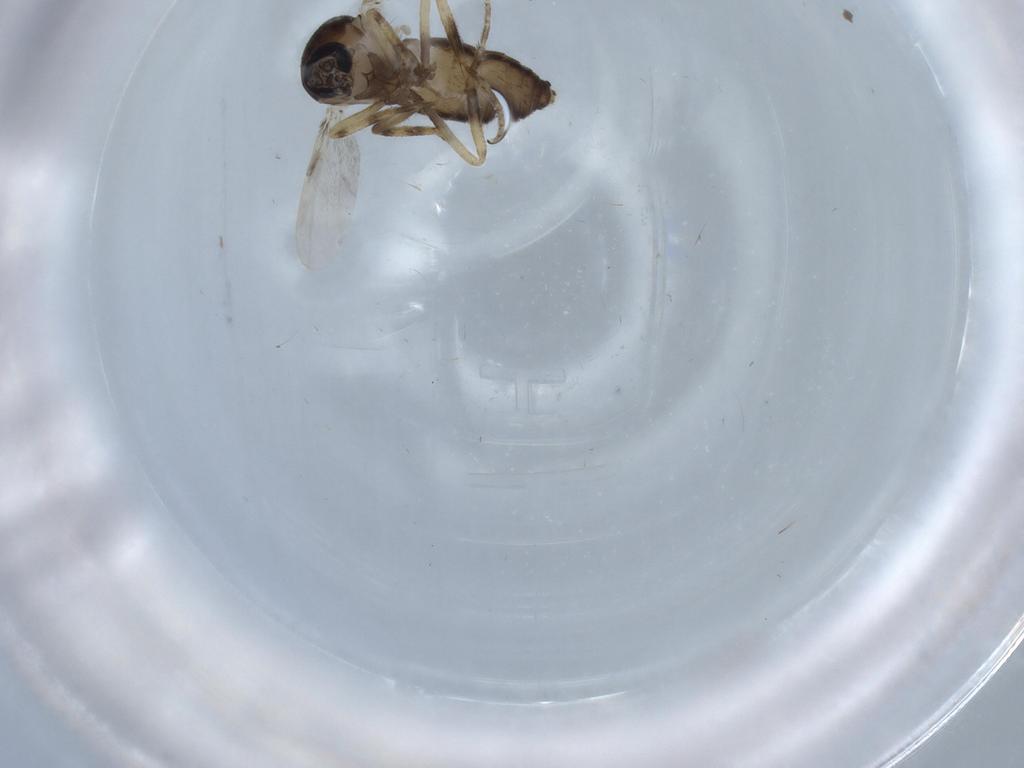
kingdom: Animalia
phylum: Arthropoda
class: Insecta
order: Diptera
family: Ceratopogonidae
